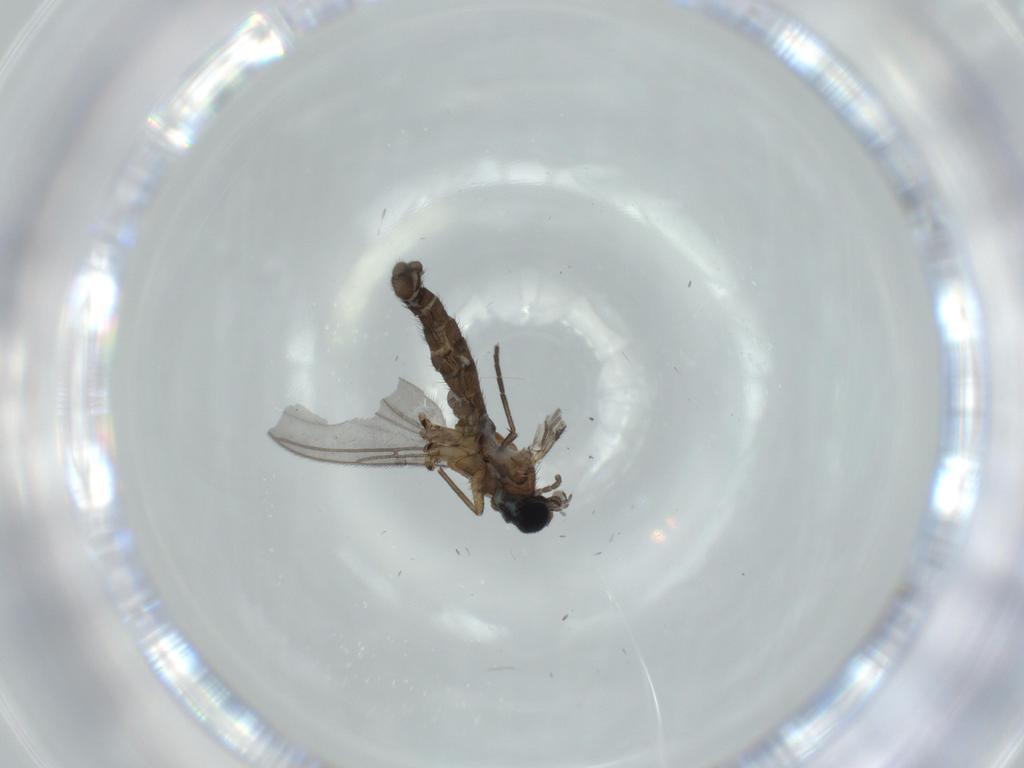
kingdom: Animalia
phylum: Arthropoda
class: Insecta
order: Diptera
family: Sciaridae
